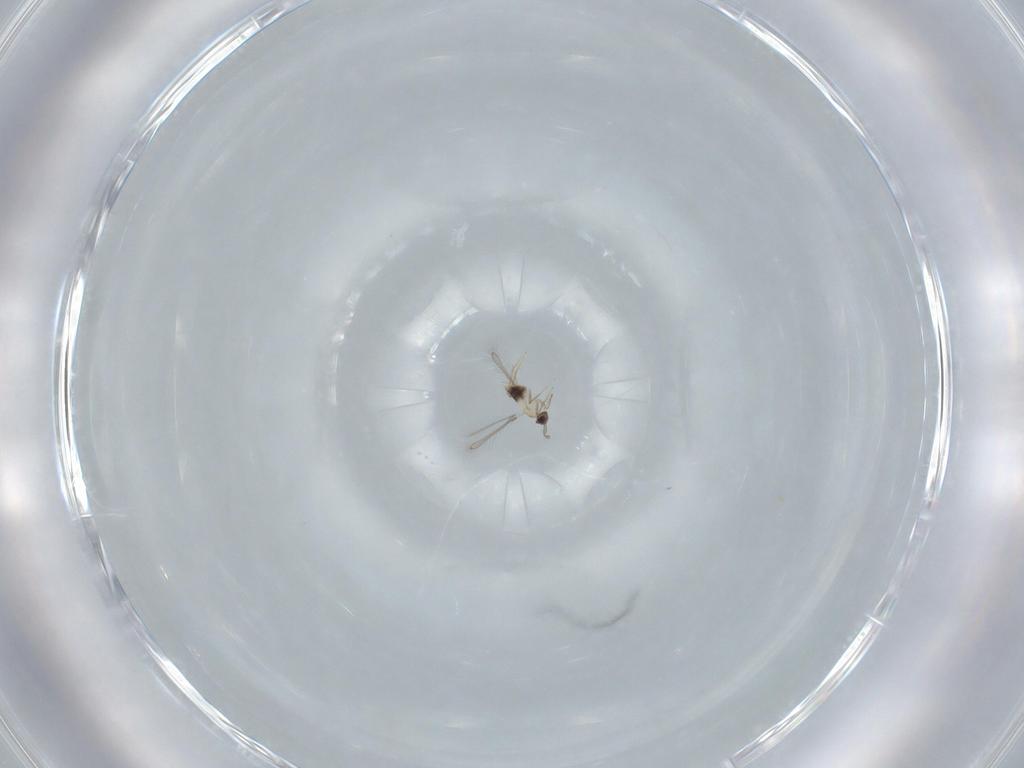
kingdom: Animalia
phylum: Arthropoda
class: Insecta
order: Hymenoptera
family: Mymaridae
